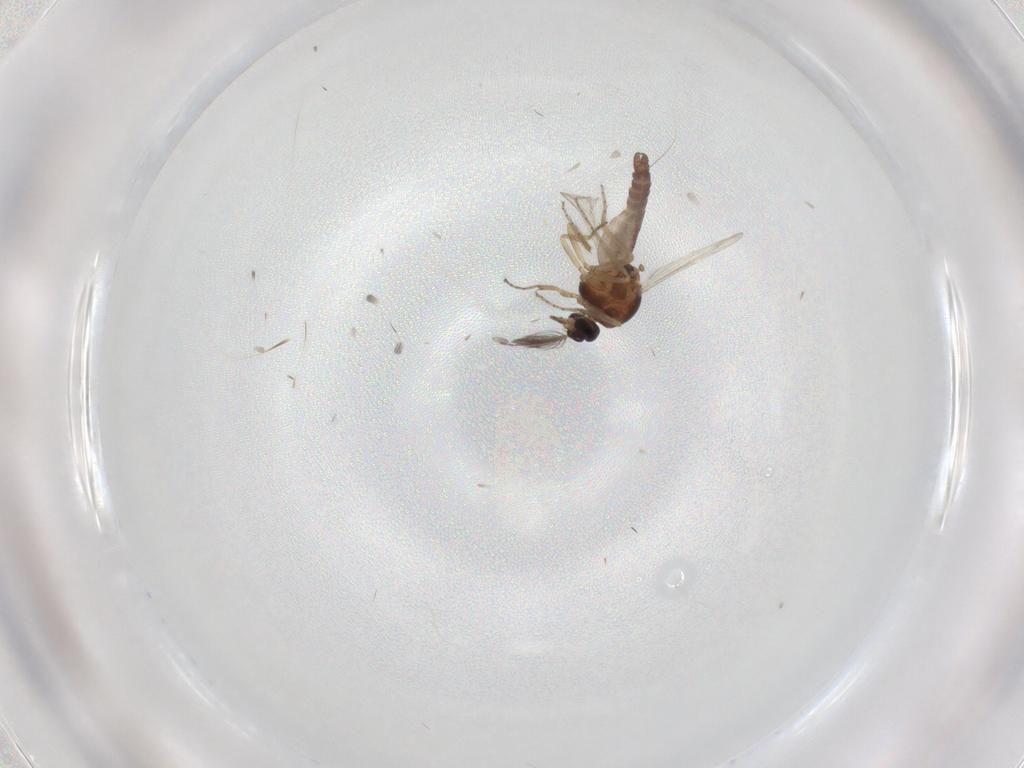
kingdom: Animalia
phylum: Arthropoda
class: Insecta
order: Diptera
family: Ceratopogonidae
